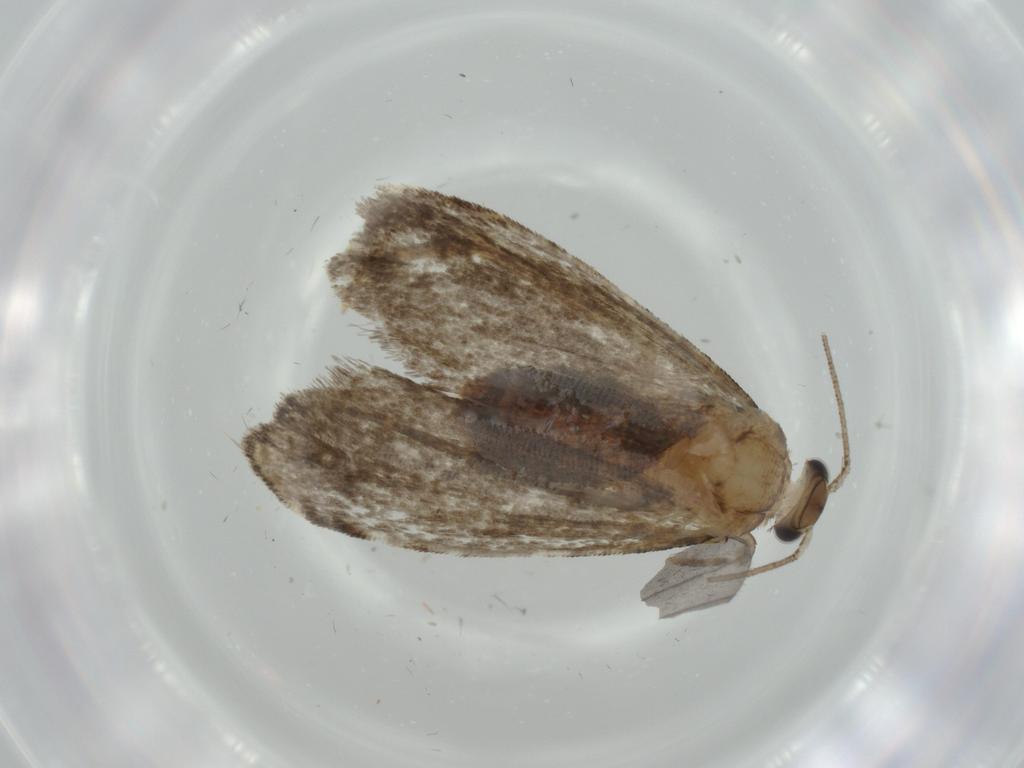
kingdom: Animalia
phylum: Arthropoda
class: Insecta
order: Lepidoptera
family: Tineidae
